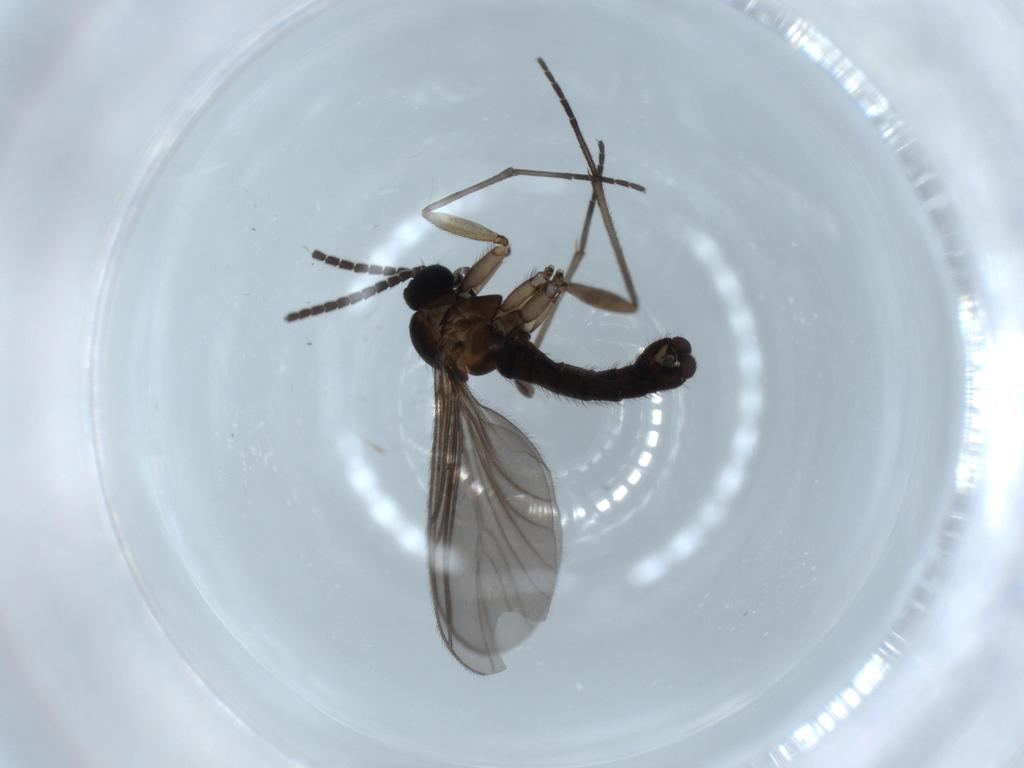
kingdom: Animalia
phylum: Arthropoda
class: Insecta
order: Diptera
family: Sciaridae
